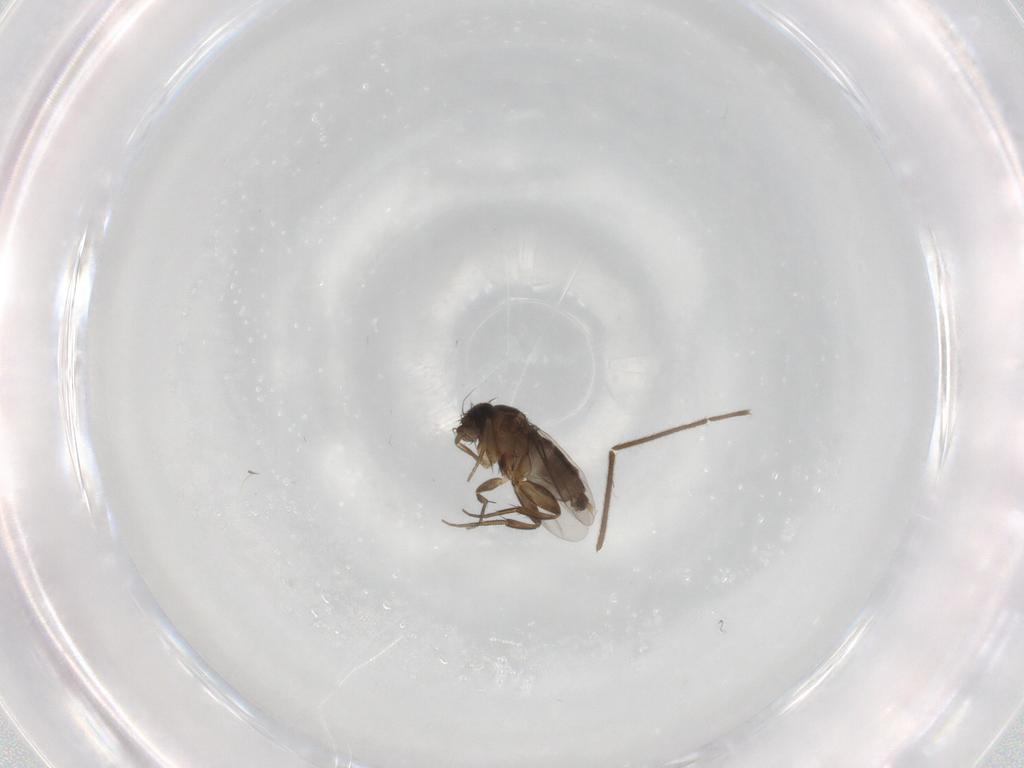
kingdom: Animalia
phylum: Arthropoda
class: Insecta
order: Diptera
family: Phoridae
